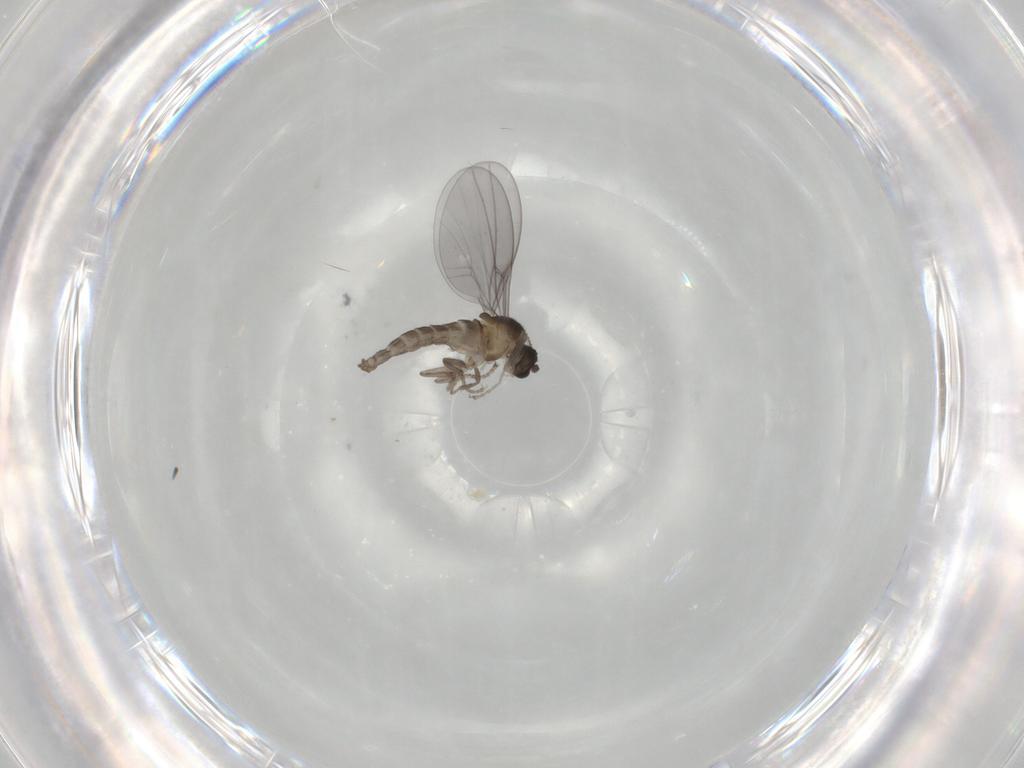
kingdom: Animalia
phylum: Arthropoda
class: Insecta
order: Diptera
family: Cecidomyiidae
